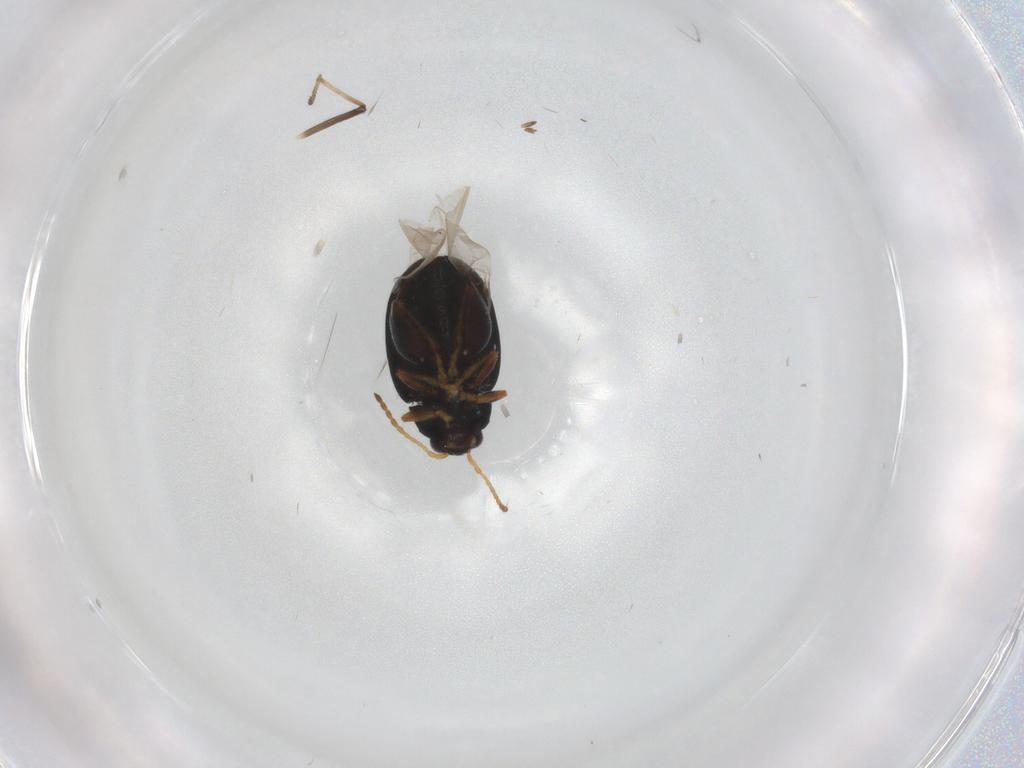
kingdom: Animalia
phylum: Arthropoda
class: Insecta
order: Coleoptera
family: Chrysomelidae
